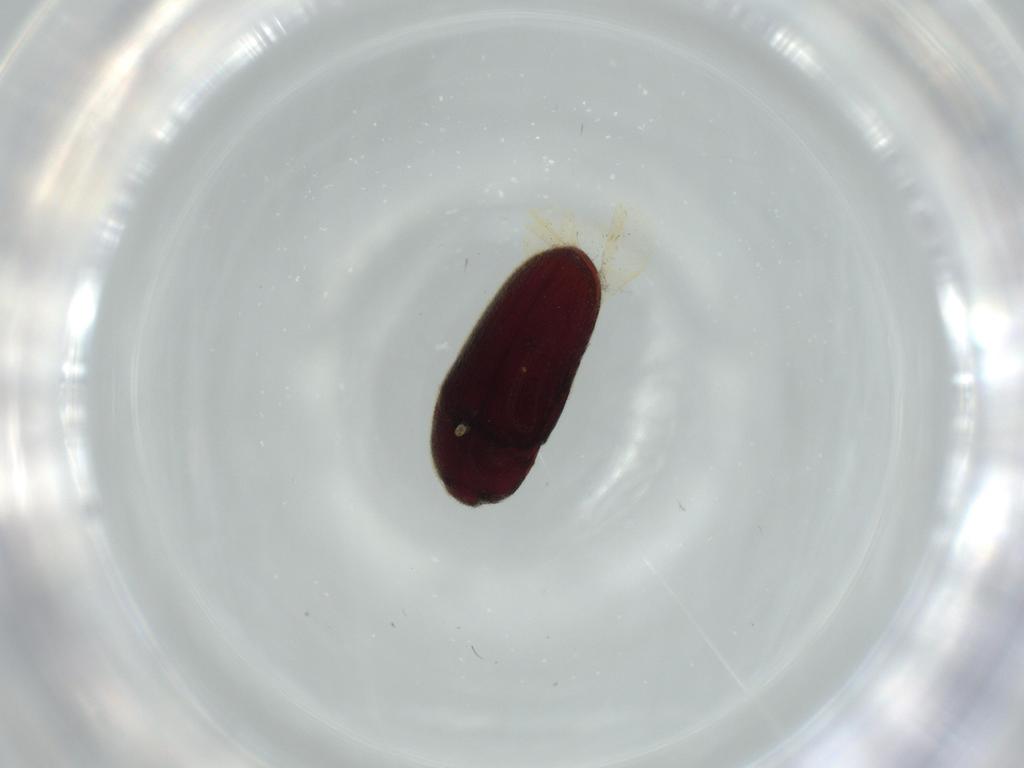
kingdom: Animalia
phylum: Arthropoda
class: Insecta
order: Coleoptera
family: Throscidae
